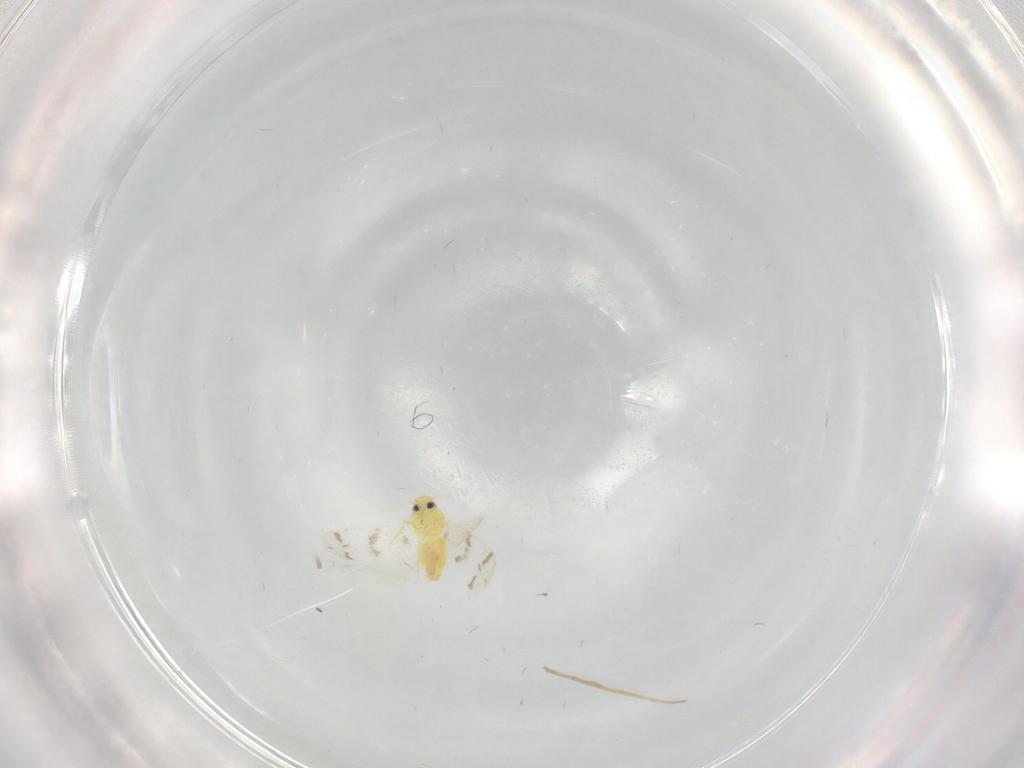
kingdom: Animalia
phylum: Arthropoda
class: Insecta
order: Hemiptera
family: Aleyrodidae
